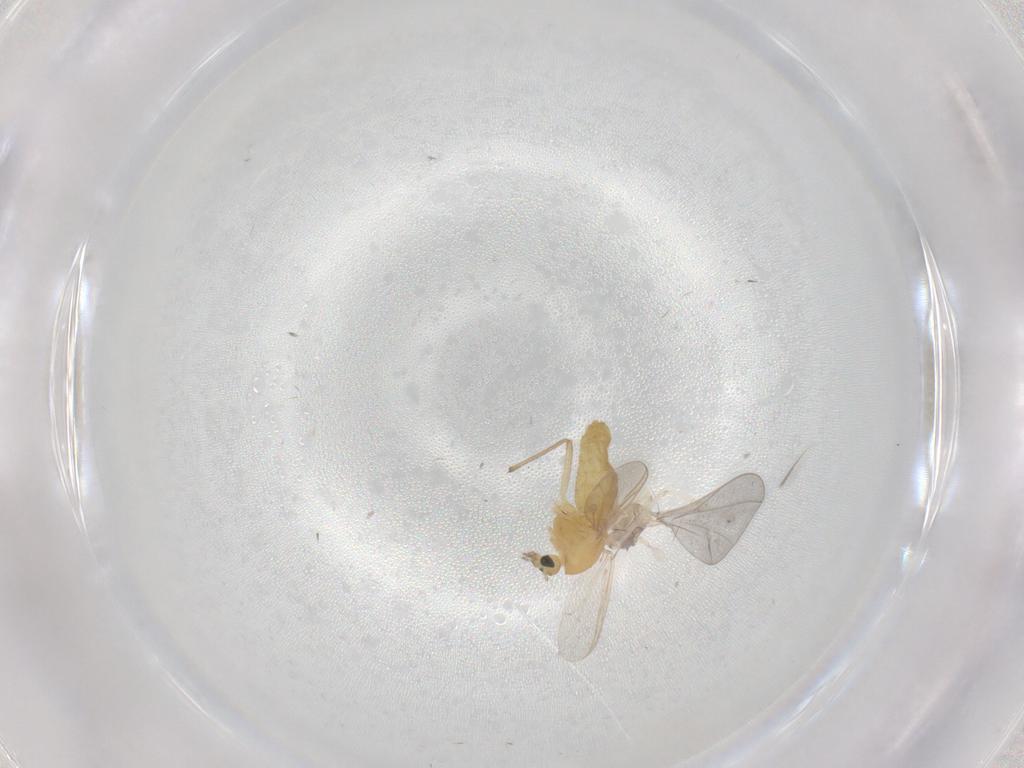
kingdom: Animalia
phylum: Arthropoda
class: Insecta
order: Diptera
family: Cecidomyiidae
